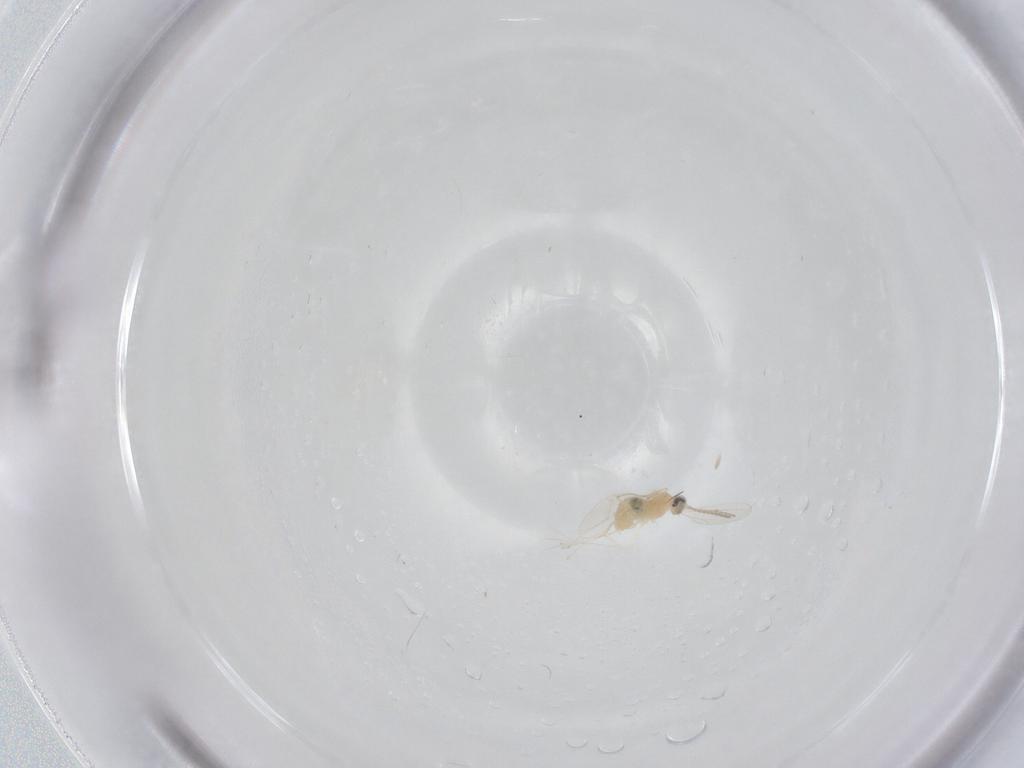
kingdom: Animalia
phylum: Arthropoda
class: Insecta
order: Diptera
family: Cecidomyiidae
